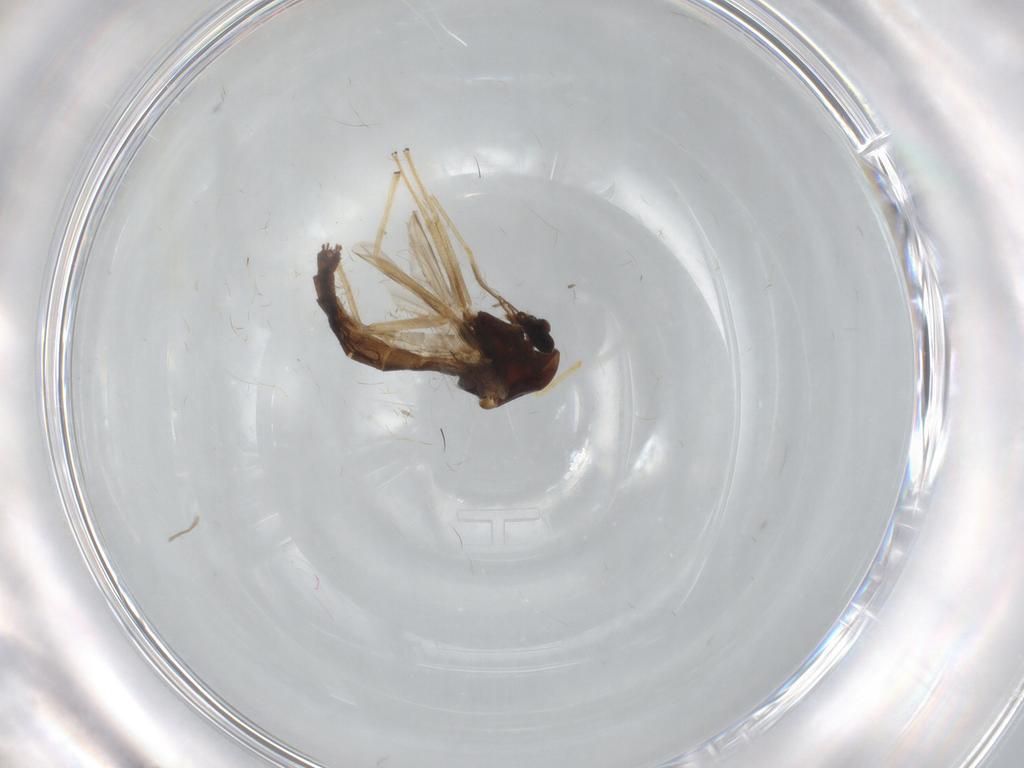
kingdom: Animalia
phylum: Arthropoda
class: Insecta
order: Diptera
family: Chironomidae
